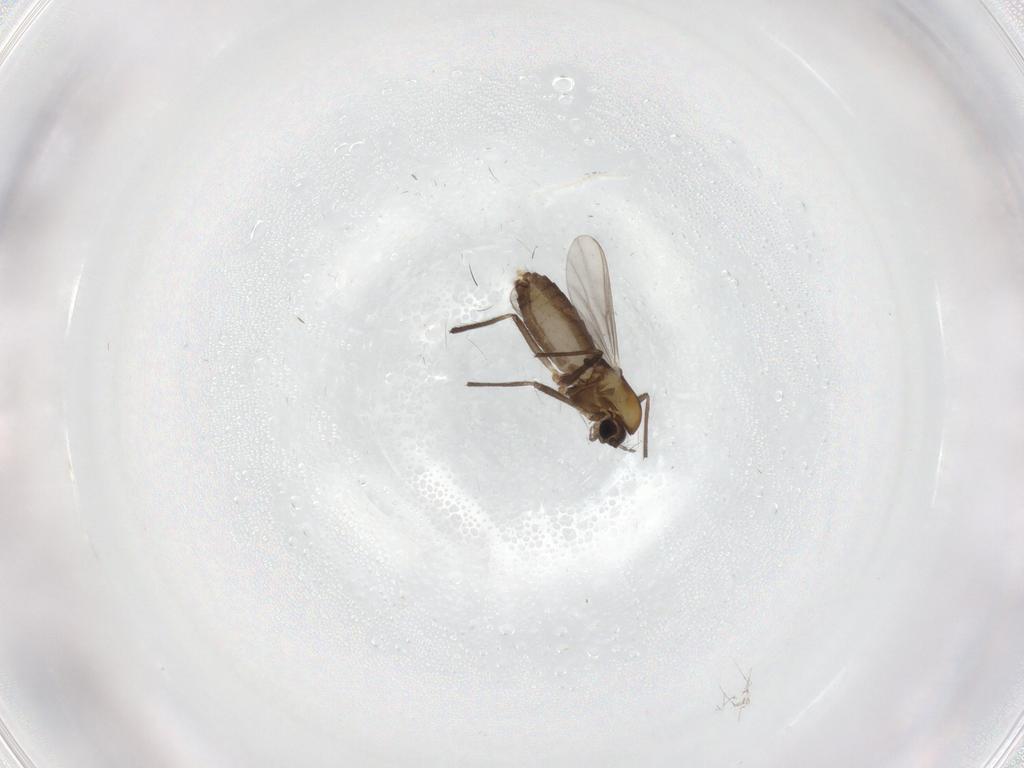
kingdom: Animalia
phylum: Arthropoda
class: Insecta
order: Diptera
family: Chironomidae
